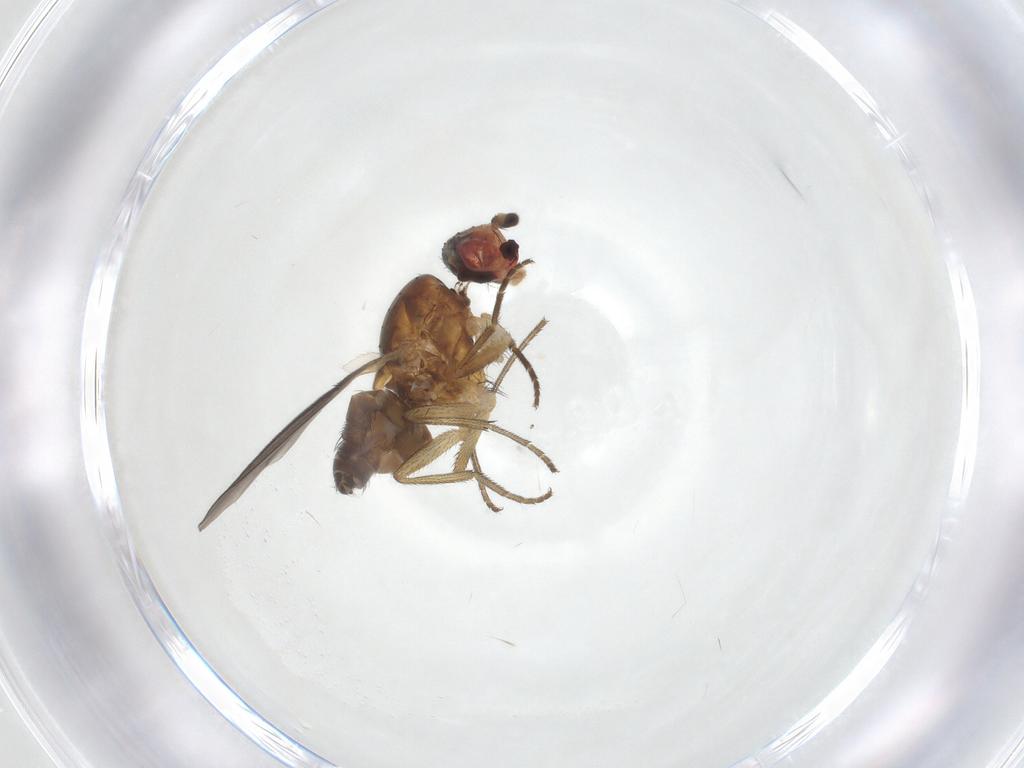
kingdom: Animalia
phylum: Arthropoda
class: Insecta
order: Diptera
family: Heleomyzidae
